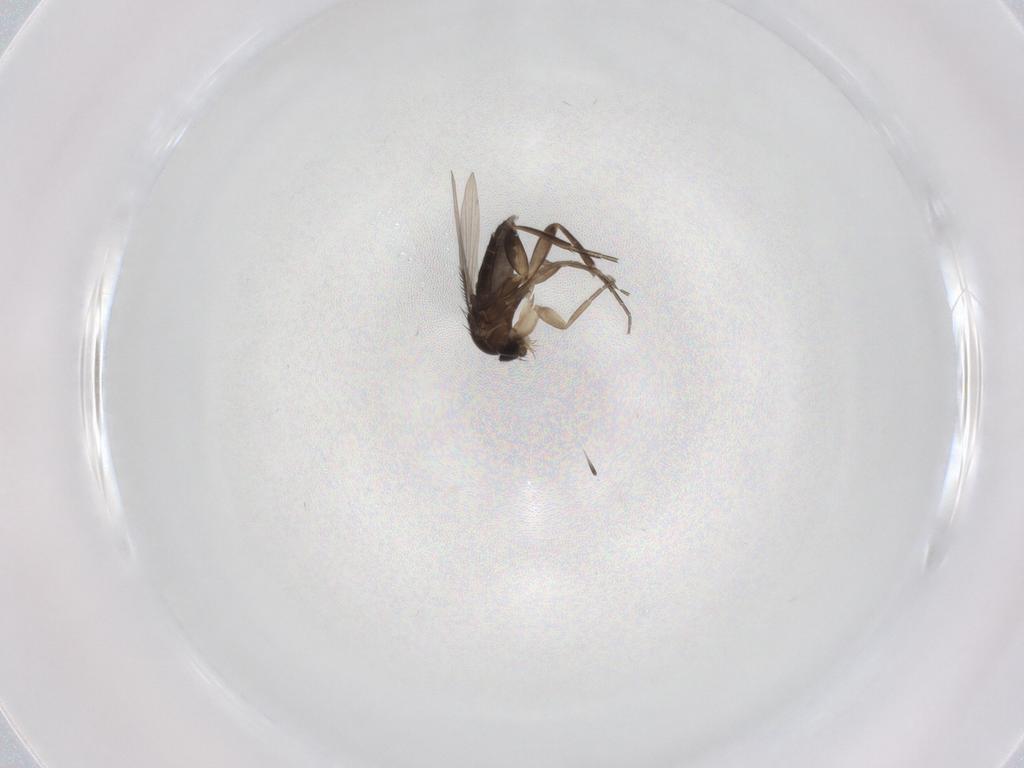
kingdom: Animalia
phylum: Arthropoda
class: Insecta
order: Diptera
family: Phoridae
